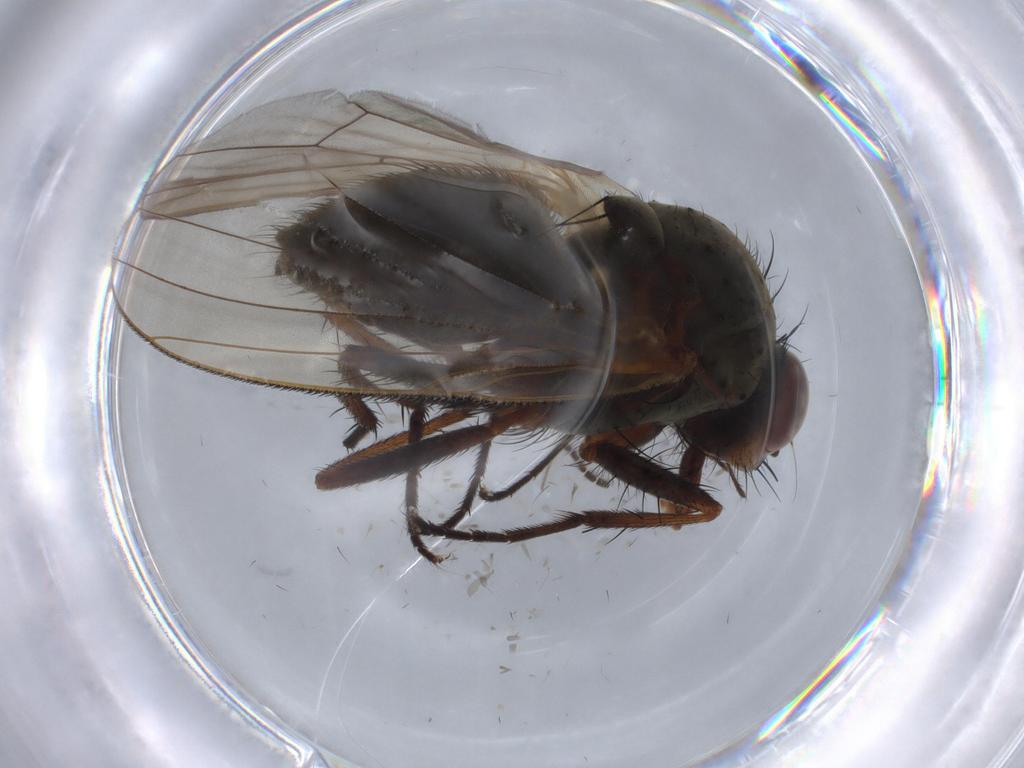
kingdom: Animalia
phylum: Arthropoda
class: Insecta
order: Diptera
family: Anthomyiidae
